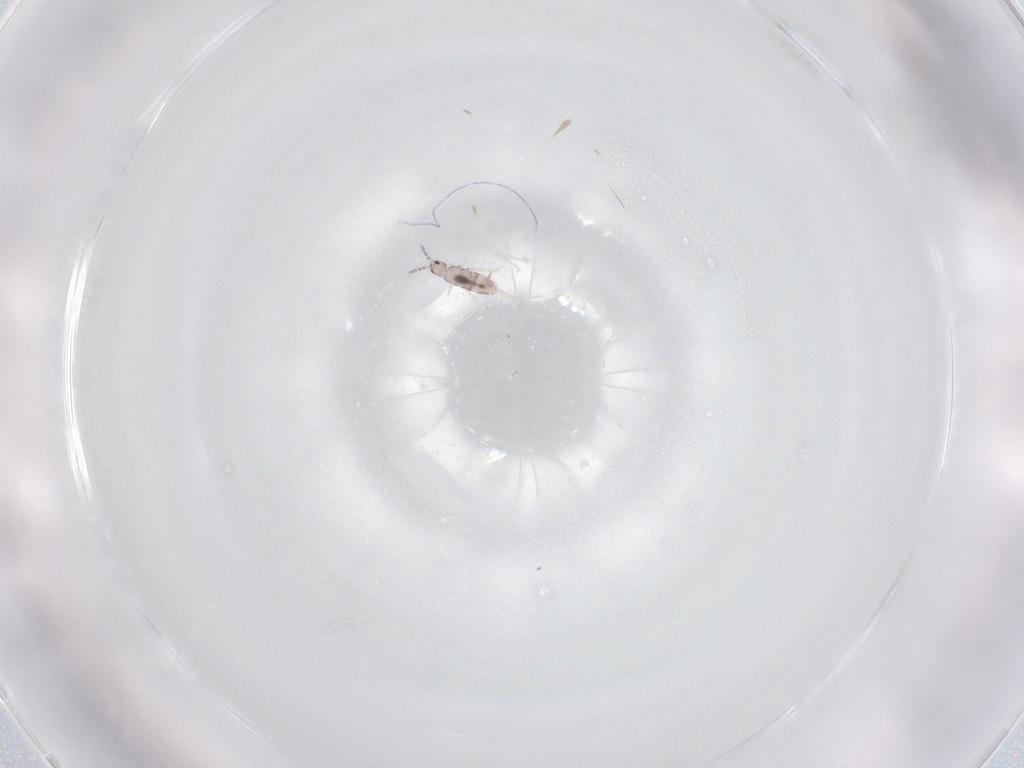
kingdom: Animalia
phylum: Arthropoda
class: Collembola
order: Entomobryomorpha
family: Entomobryidae
